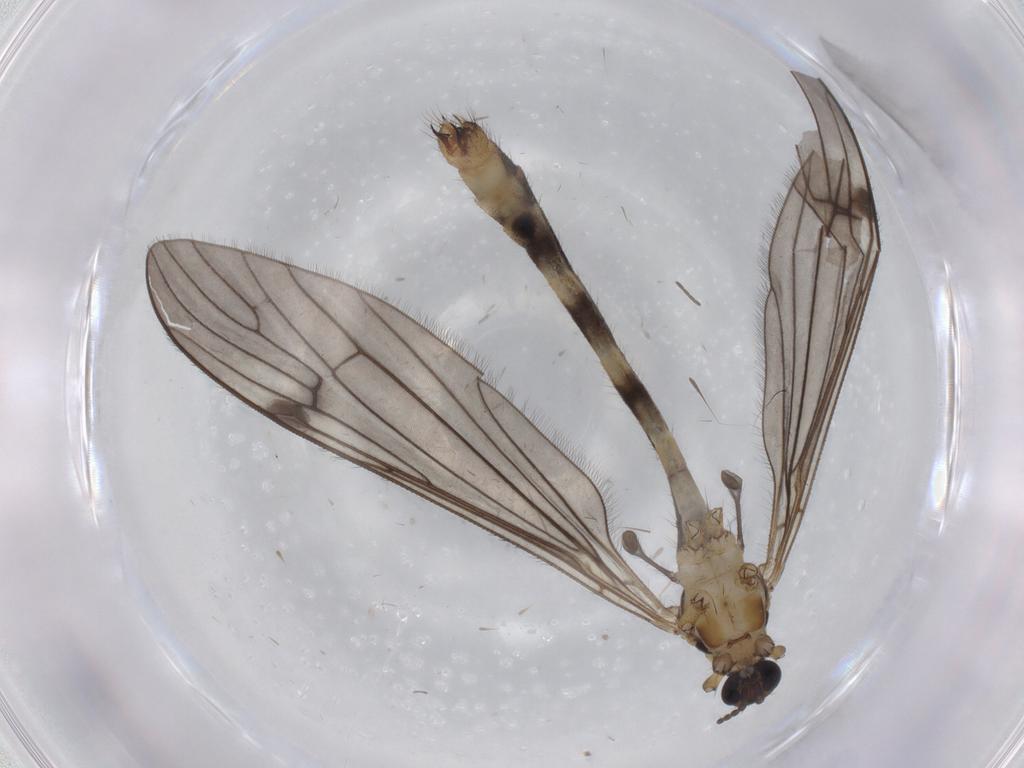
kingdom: Animalia
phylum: Arthropoda
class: Insecta
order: Diptera
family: Limoniidae
